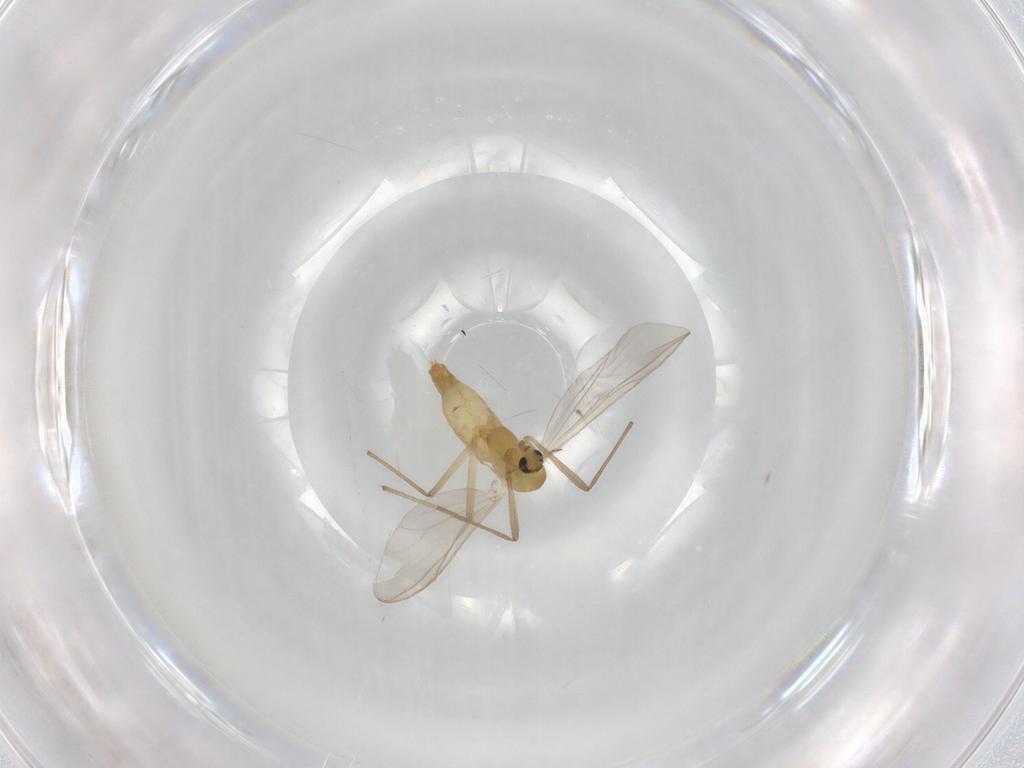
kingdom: Animalia
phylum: Arthropoda
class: Insecta
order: Diptera
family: Chironomidae
